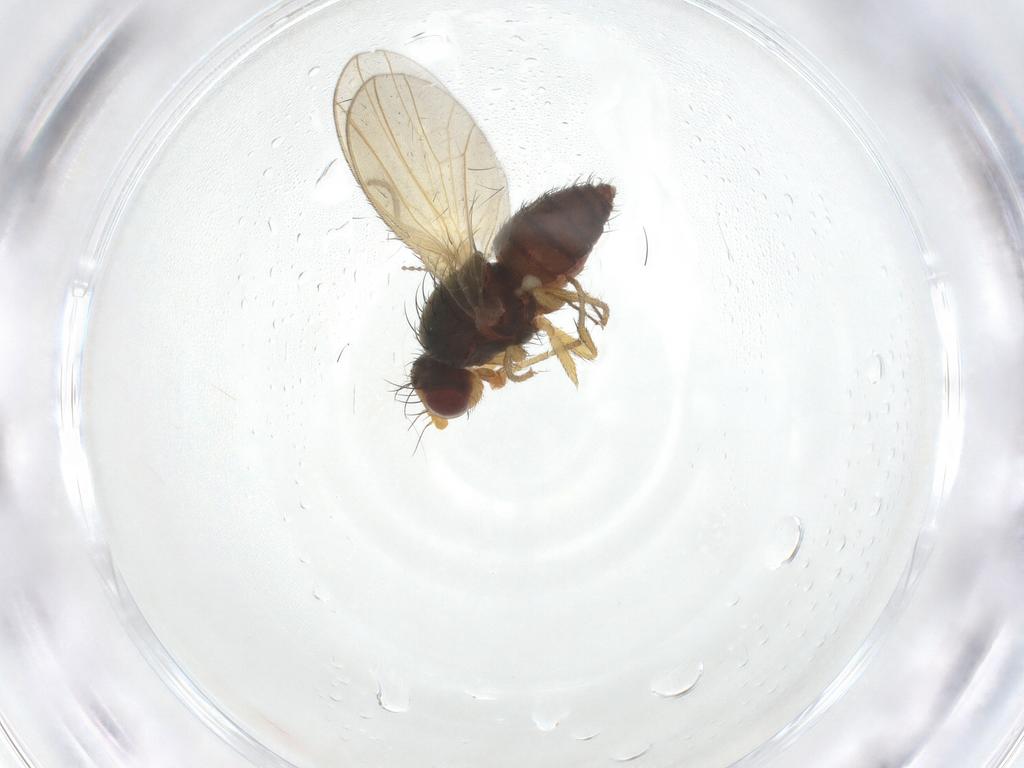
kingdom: Animalia
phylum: Arthropoda
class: Insecta
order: Diptera
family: Heleomyzidae
